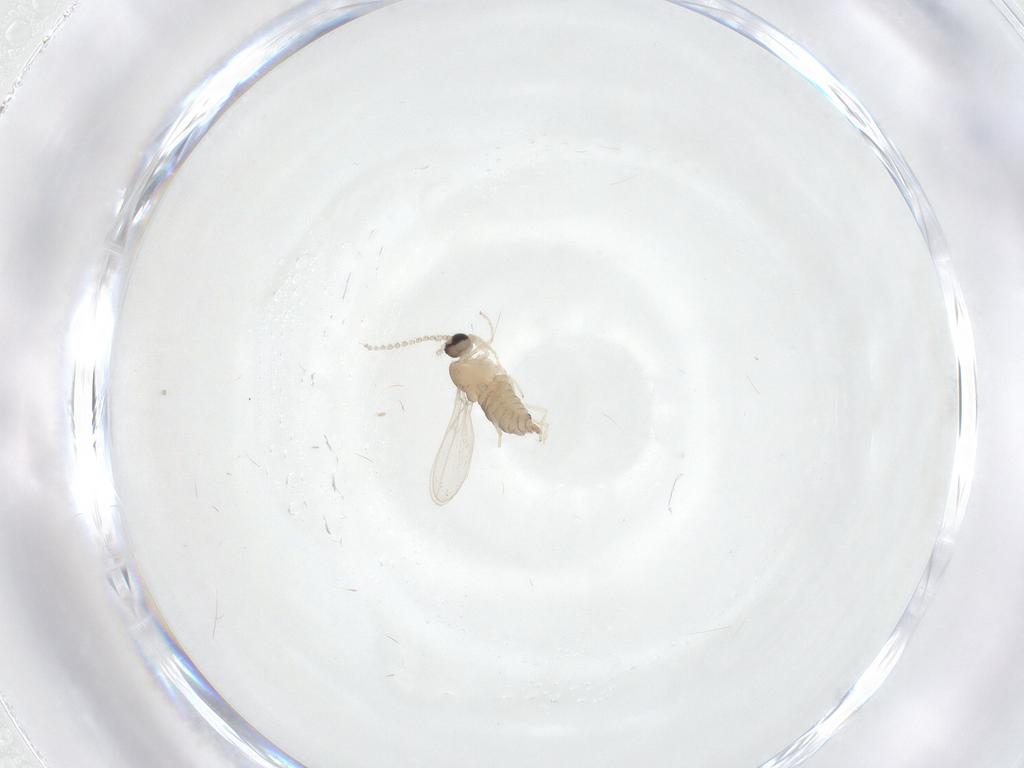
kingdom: Animalia
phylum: Arthropoda
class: Insecta
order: Diptera
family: Cecidomyiidae
